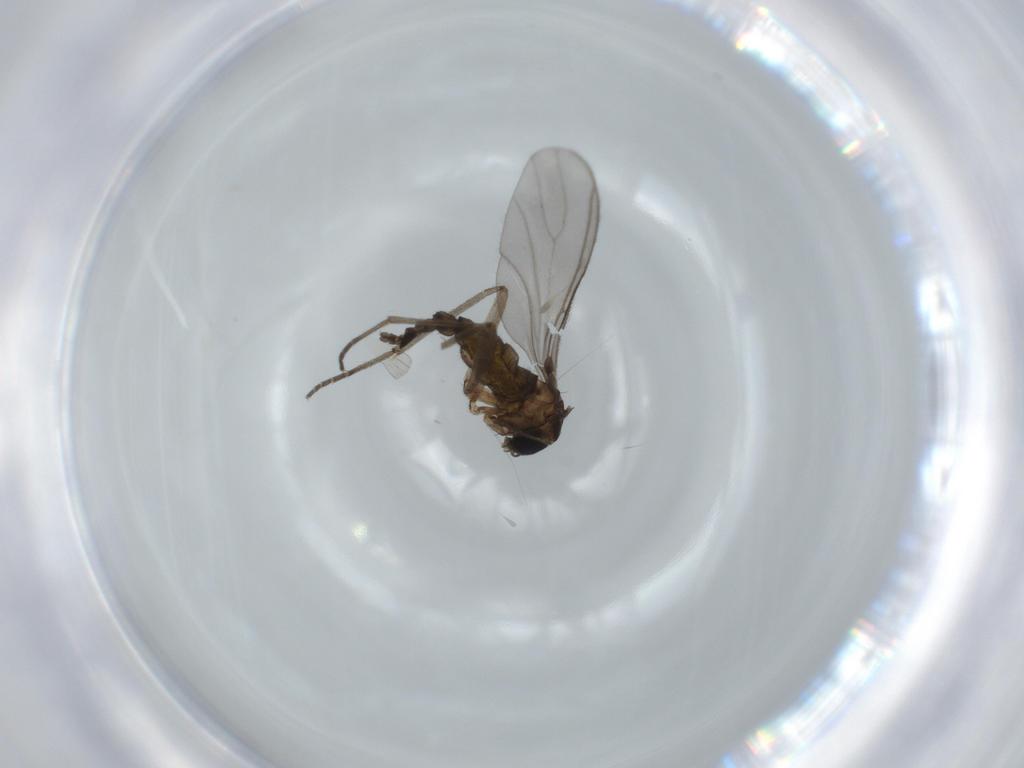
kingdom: Animalia
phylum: Arthropoda
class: Insecta
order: Diptera
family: Sciaridae
